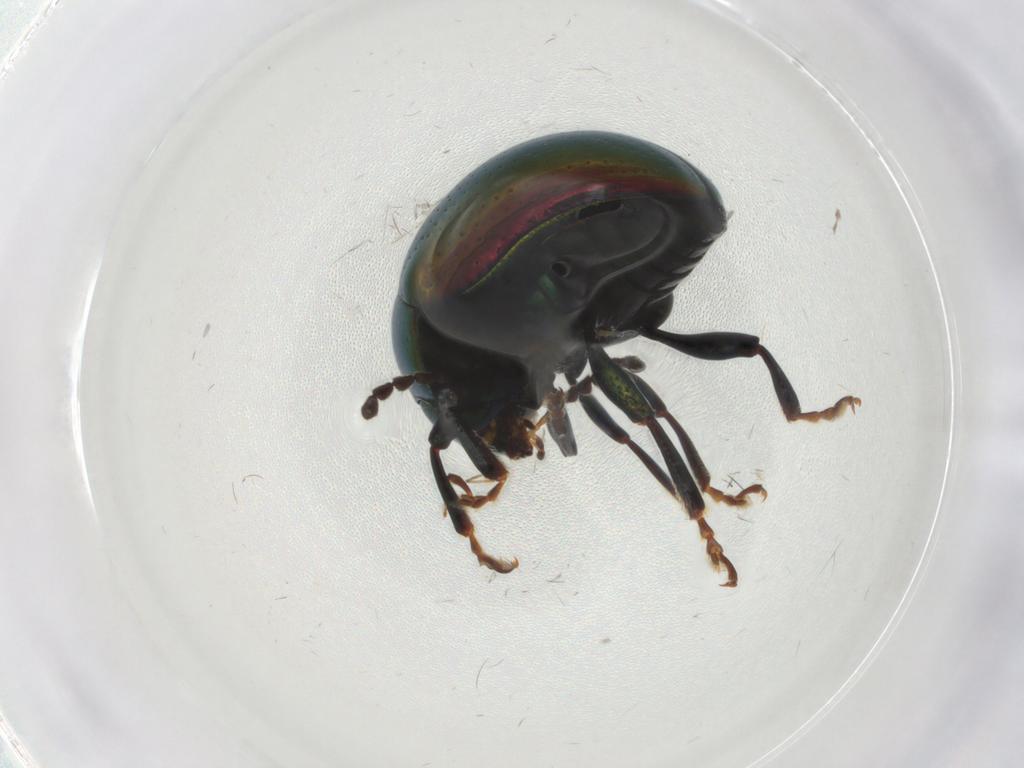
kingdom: Animalia
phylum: Arthropoda
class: Insecta
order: Coleoptera
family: Chrysomelidae
